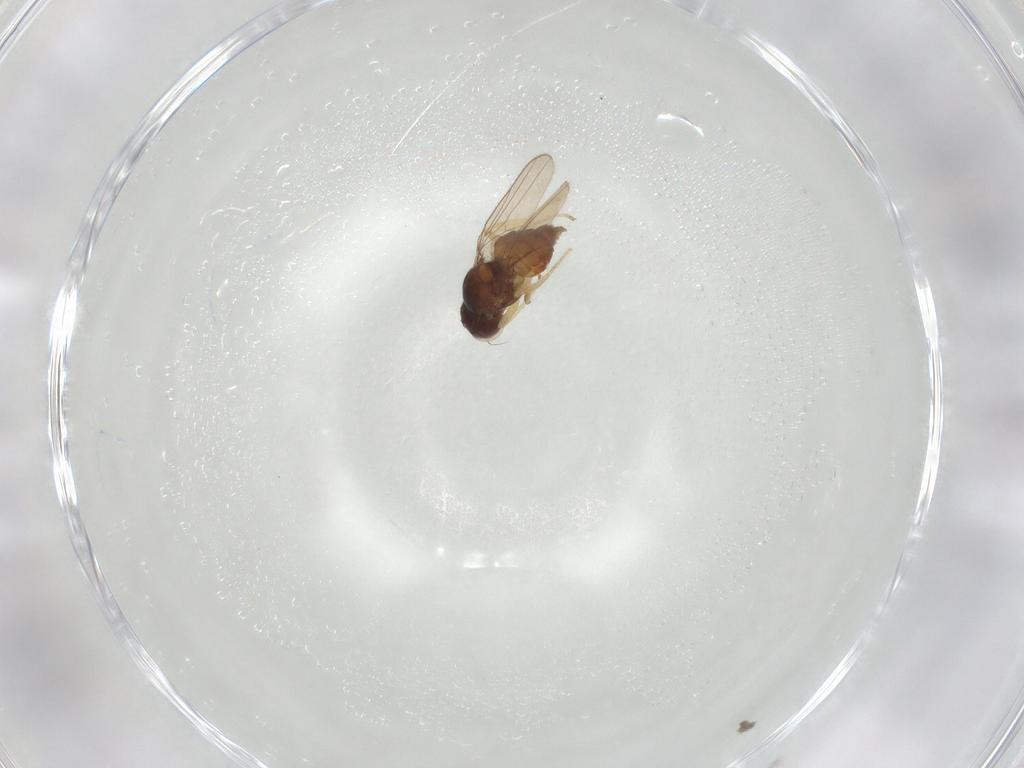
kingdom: Animalia
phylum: Arthropoda
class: Insecta
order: Diptera
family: Chloropidae
